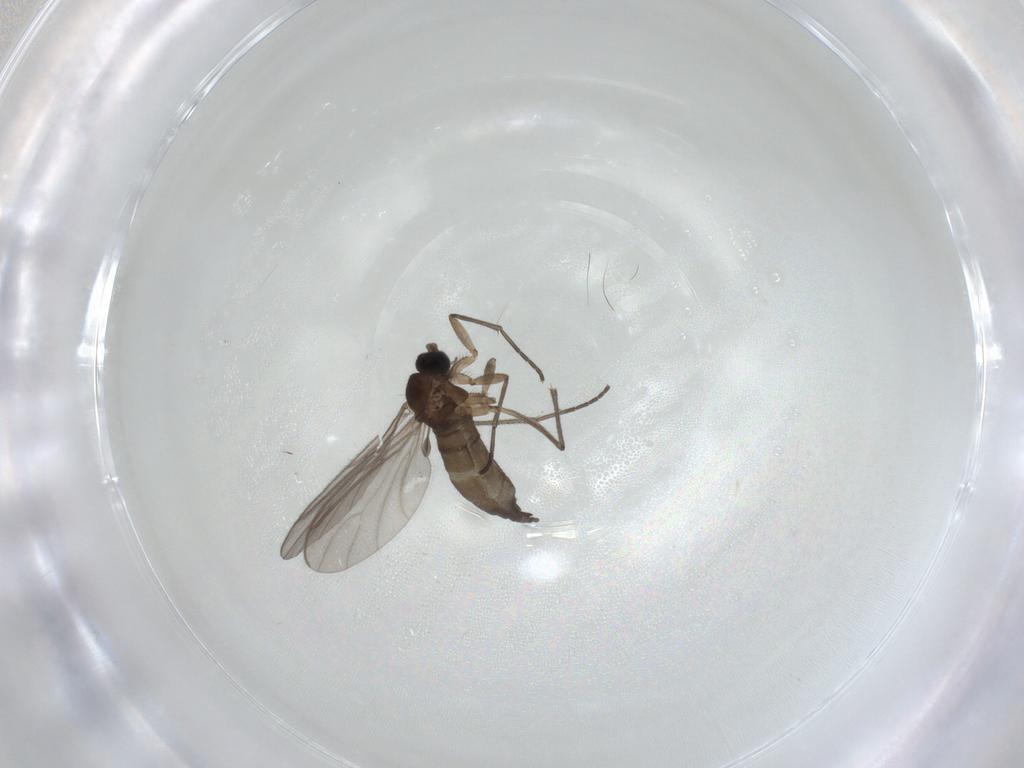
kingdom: Animalia
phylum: Arthropoda
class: Insecta
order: Diptera
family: Sciaridae
